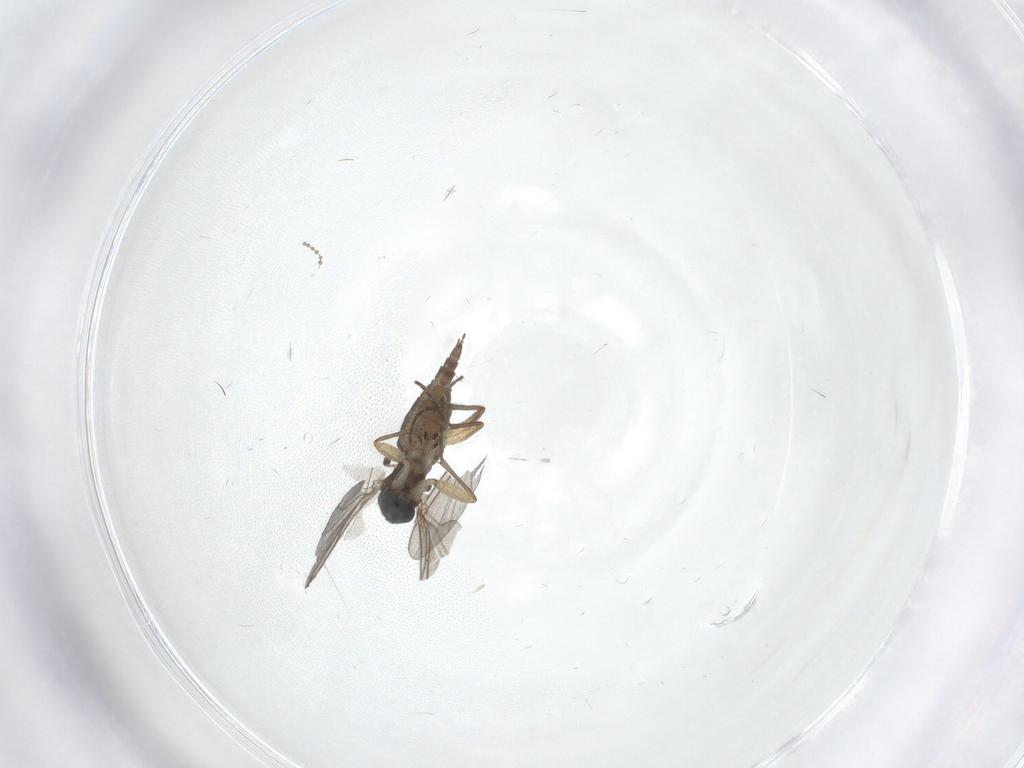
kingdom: Animalia
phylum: Arthropoda
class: Insecta
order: Diptera
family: Sciaridae
